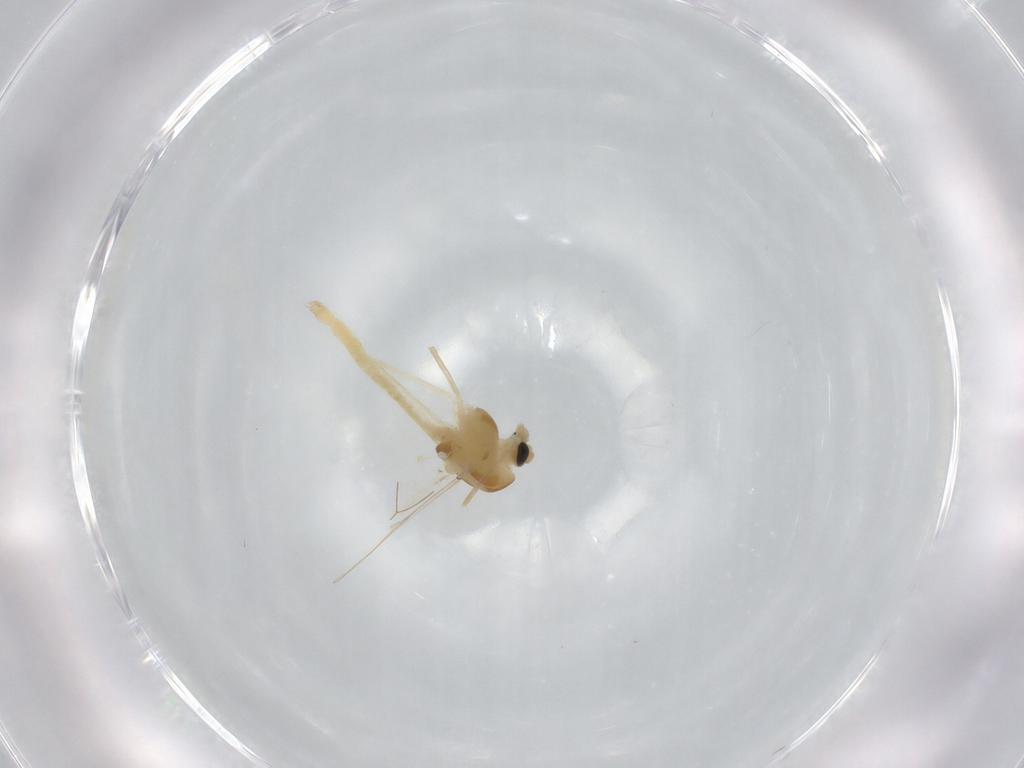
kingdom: Animalia
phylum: Arthropoda
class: Insecta
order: Diptera
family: Chironomidae
